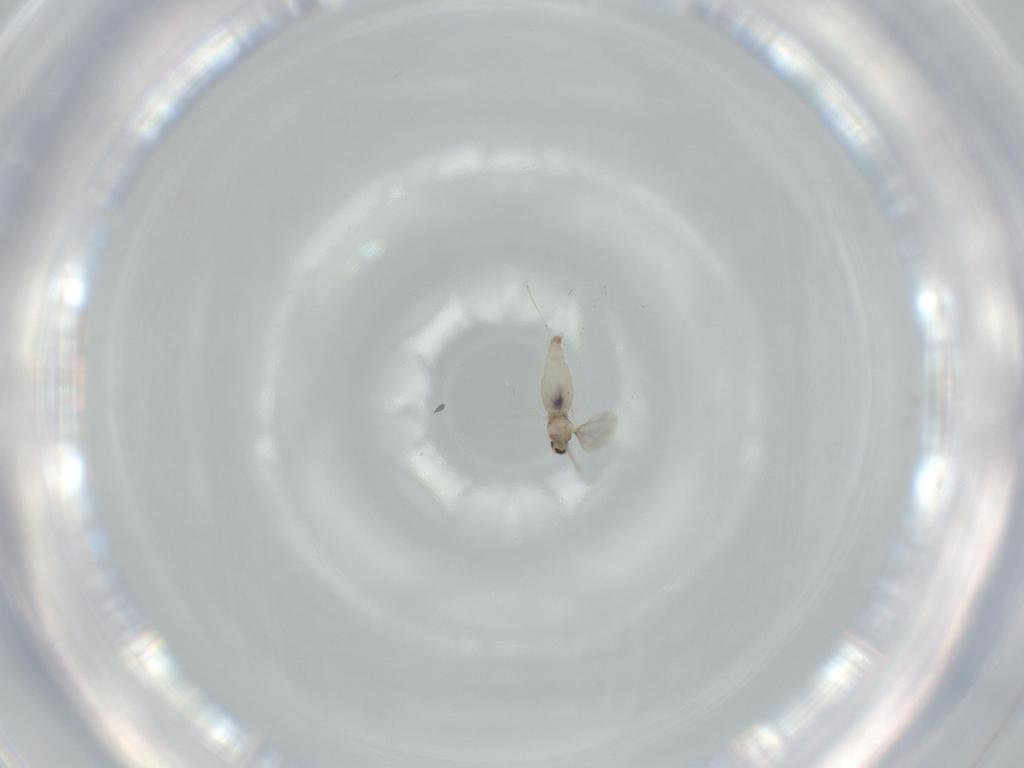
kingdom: Animalia
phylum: Arthropoda
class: Insecta
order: Diptera
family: Cecidomyiidae
